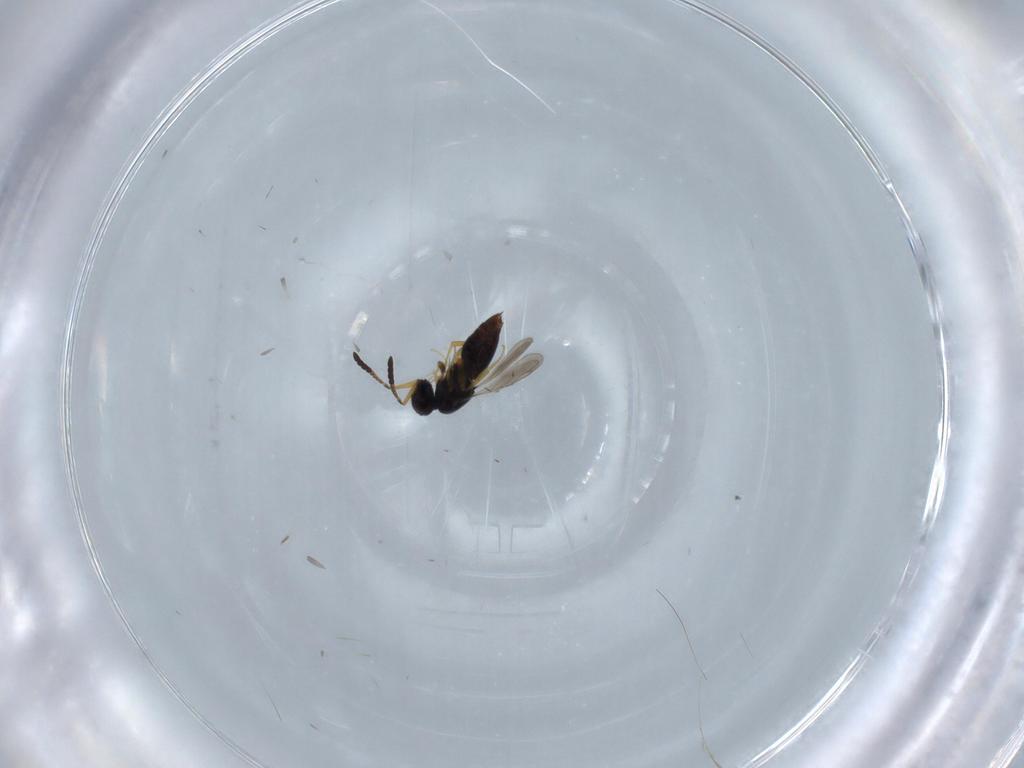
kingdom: Animalia
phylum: Arthropoda
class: Insecta
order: Hymenoptera
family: Ceraphronidae
